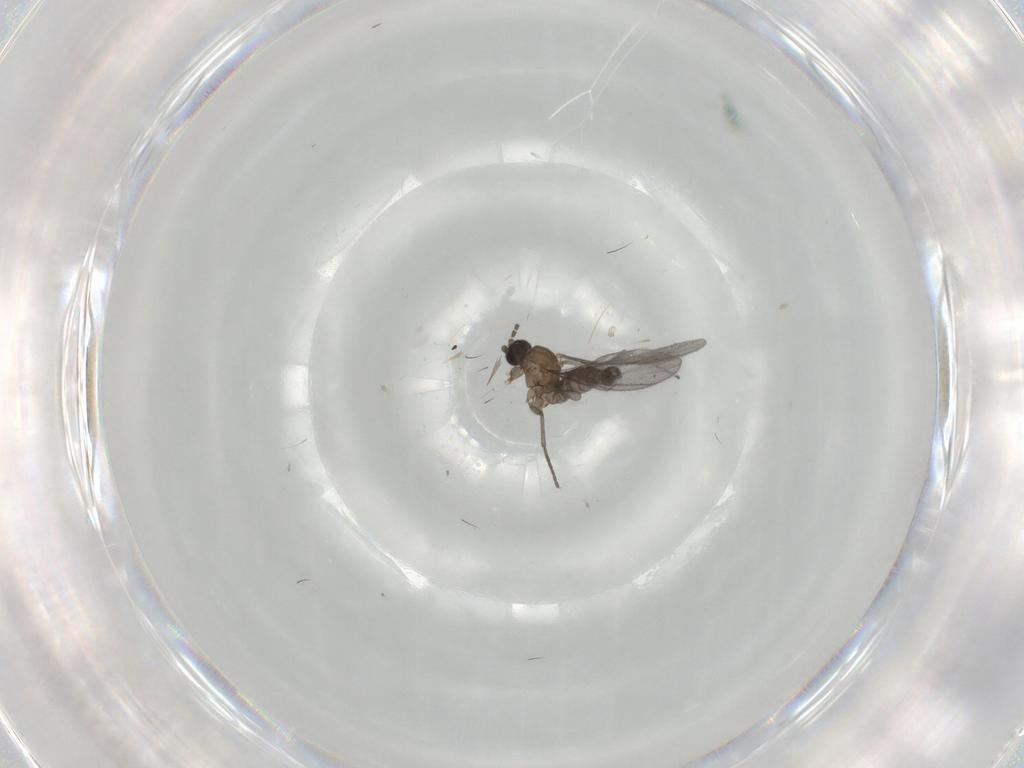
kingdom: Animalia
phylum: Arthropoda
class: Insecta
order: Diptera
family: Sciaridae
